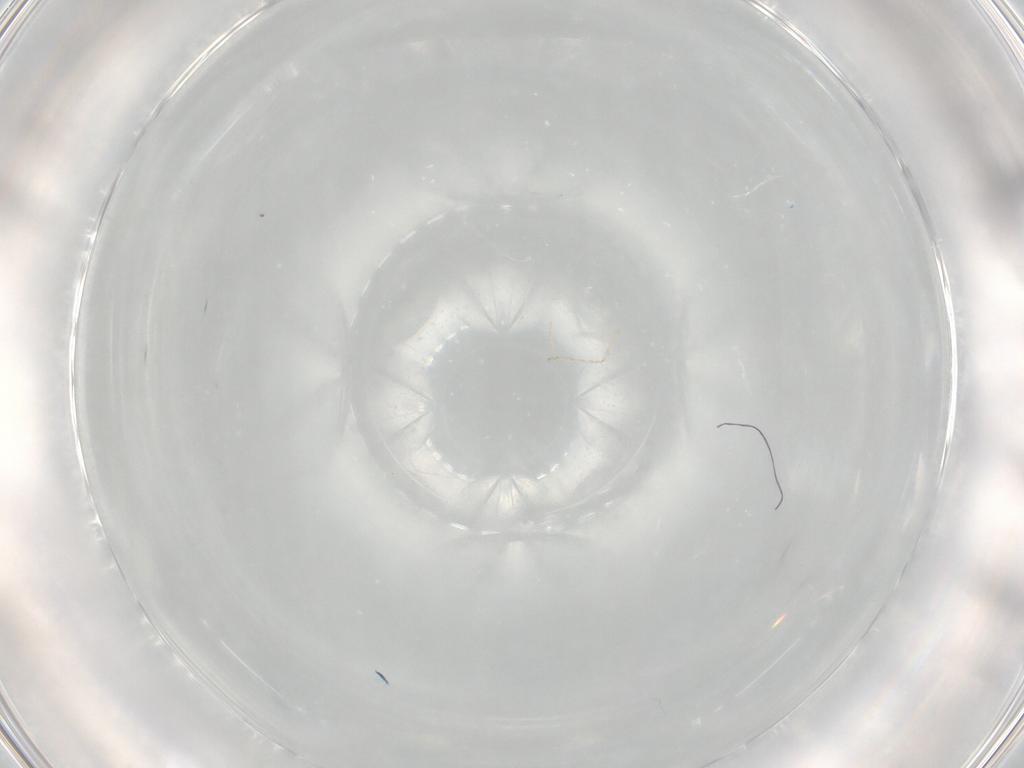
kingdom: Animalia
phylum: Arthropoda
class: Insecta
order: Diptera
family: Cecidomyiidae
